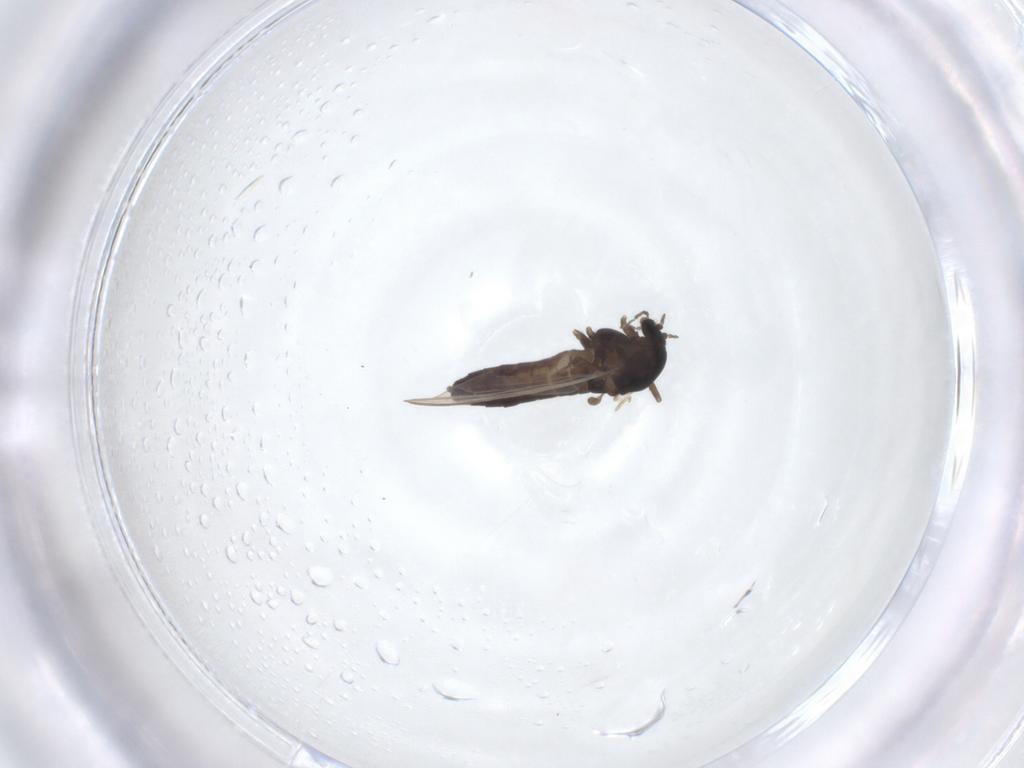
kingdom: Animalia
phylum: Arthropoda
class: Insecta
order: Diptera
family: Chironomidae
